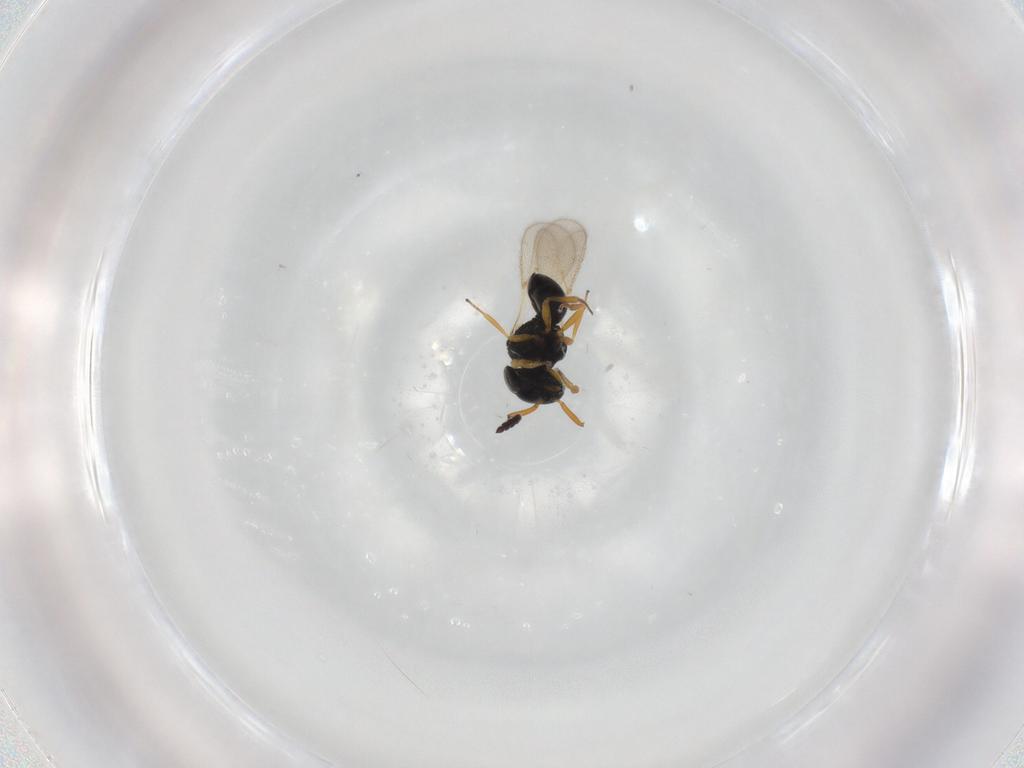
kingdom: Animalia
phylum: Arthropoda
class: Insecta
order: Hymenoptera
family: Scelionidae
